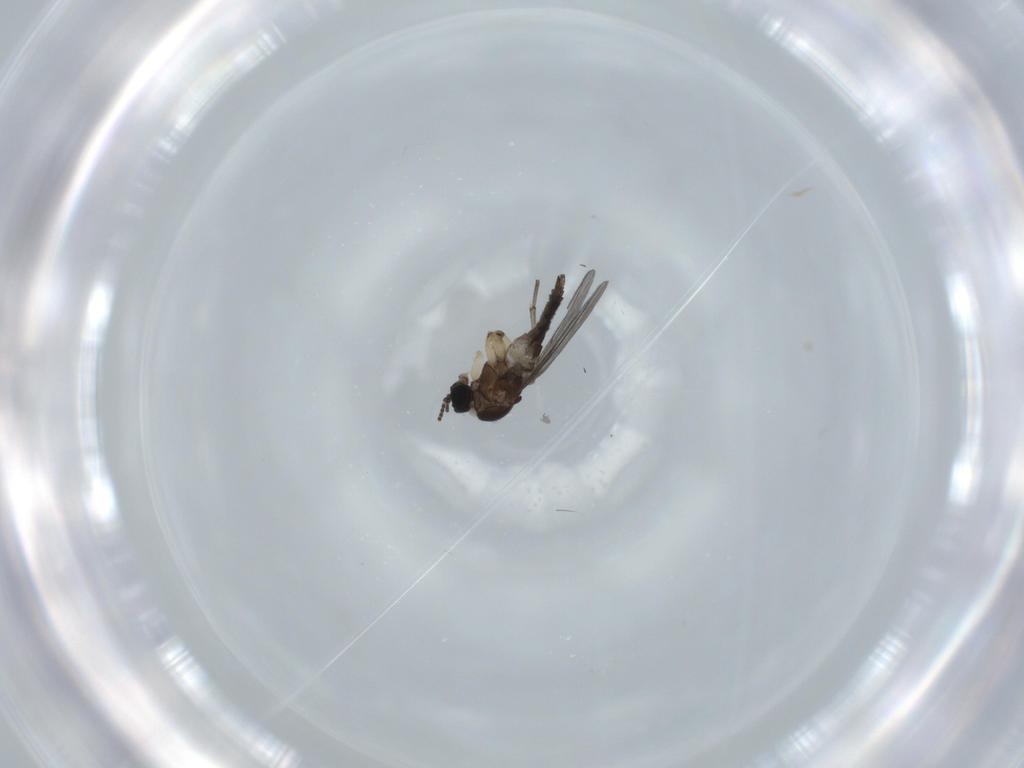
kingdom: Animalia
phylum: Arthropoda
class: Insecta
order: Diptera
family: Sciaridae
